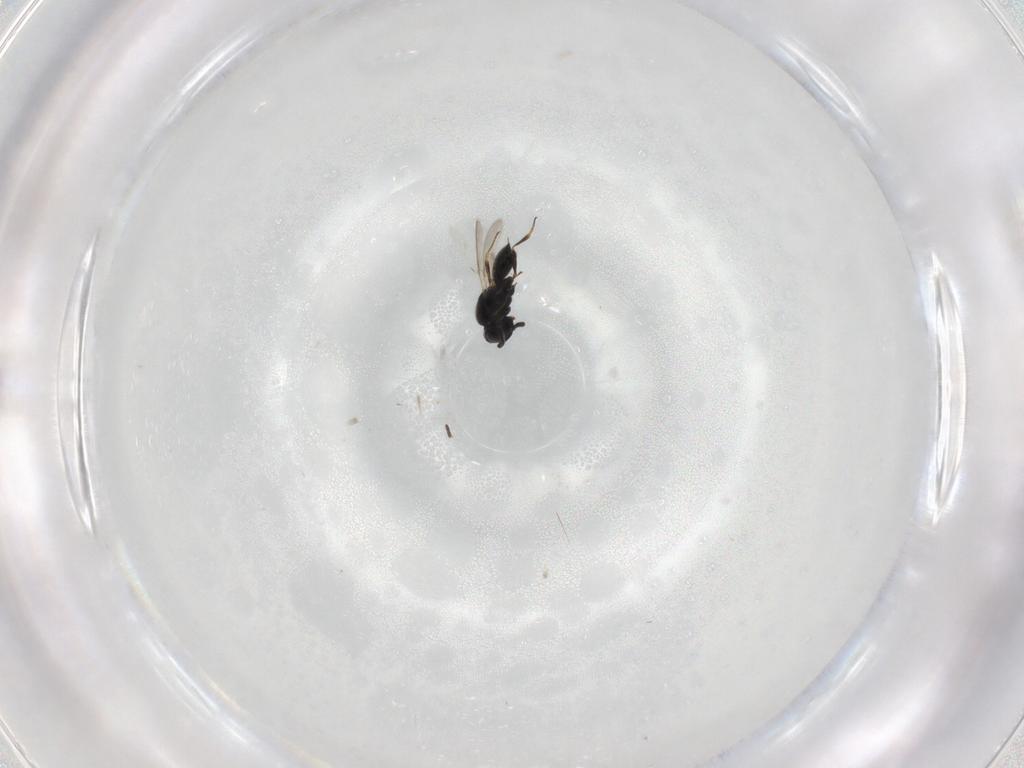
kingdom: Animalia
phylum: Arthropoda
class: Insecta
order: Hymenoptera
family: Scelionidae
